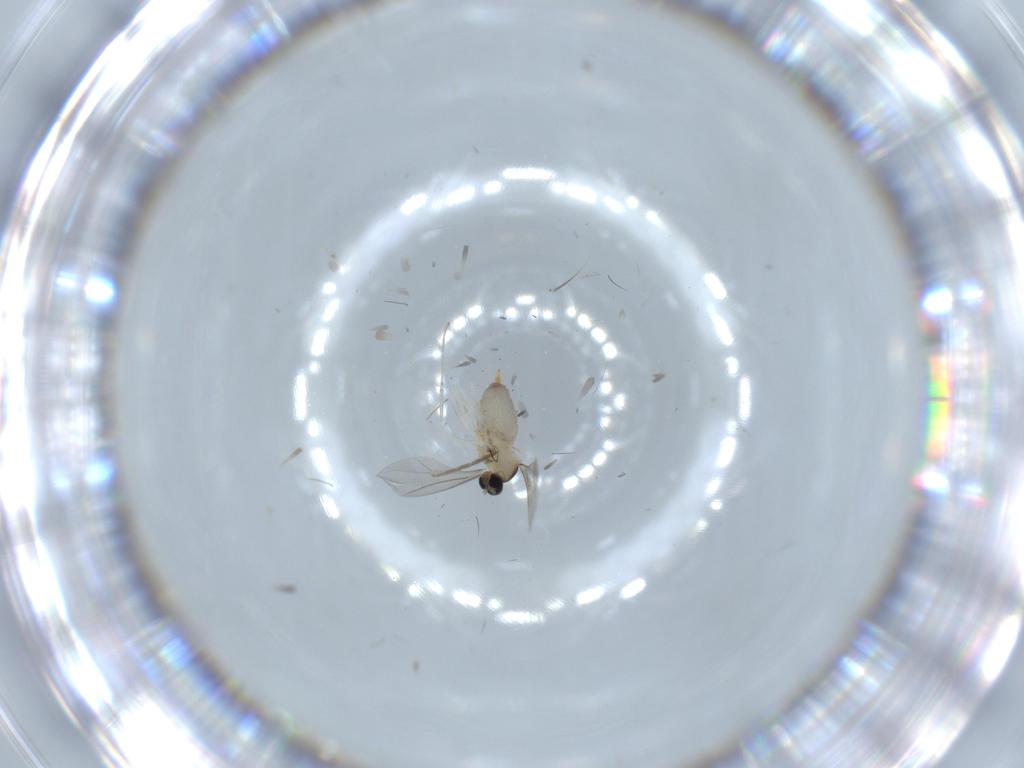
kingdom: Animalia
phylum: Arthropoda
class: Insecta
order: Diptera
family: Cecidomyiidae
